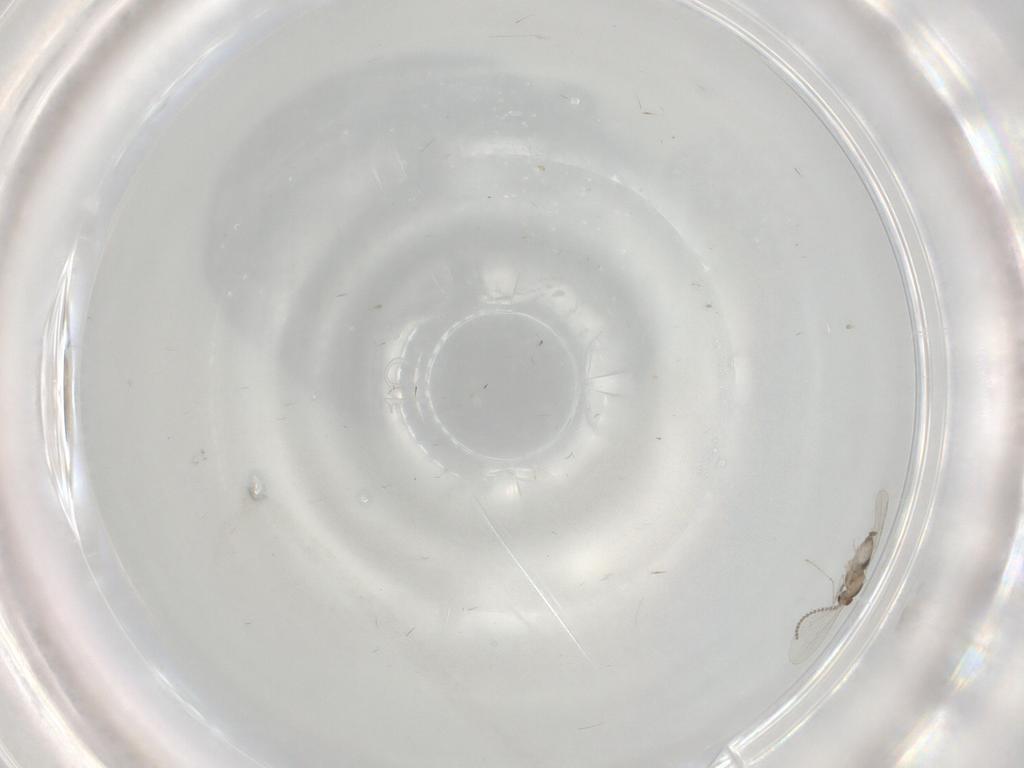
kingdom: Animalia
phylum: Arthropoda
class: Insecta
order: Diptera
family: Cecidomyiidae
